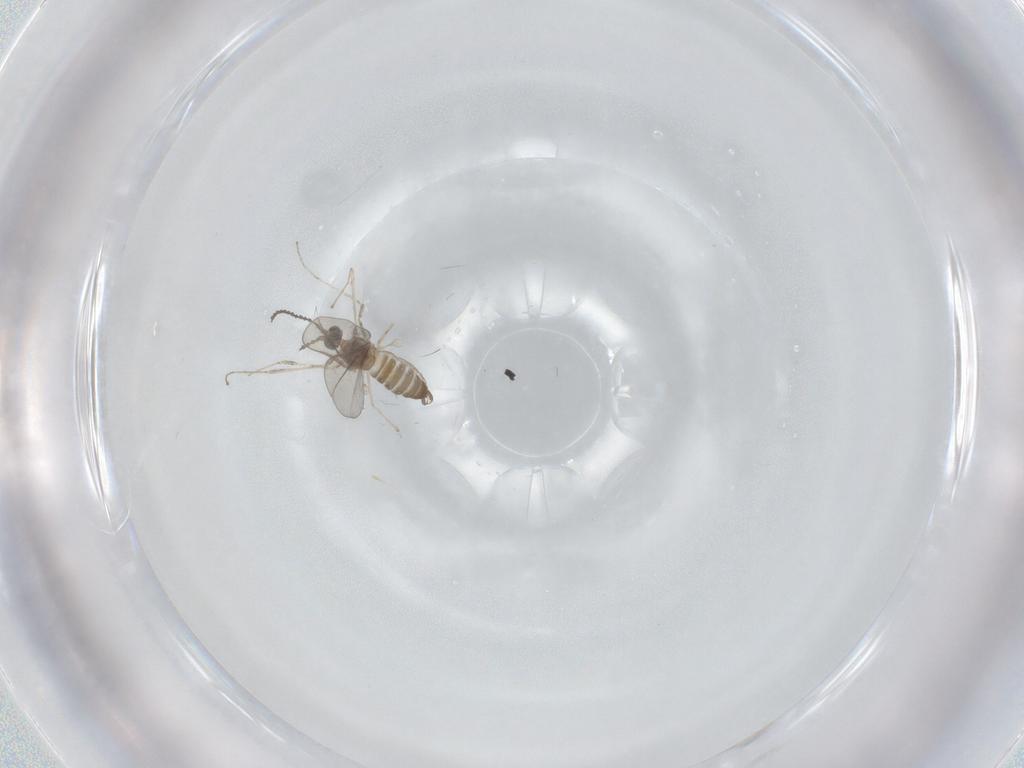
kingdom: Animalia
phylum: Arthropoda
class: Insecta
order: Diptera
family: Cecidomyiidae
